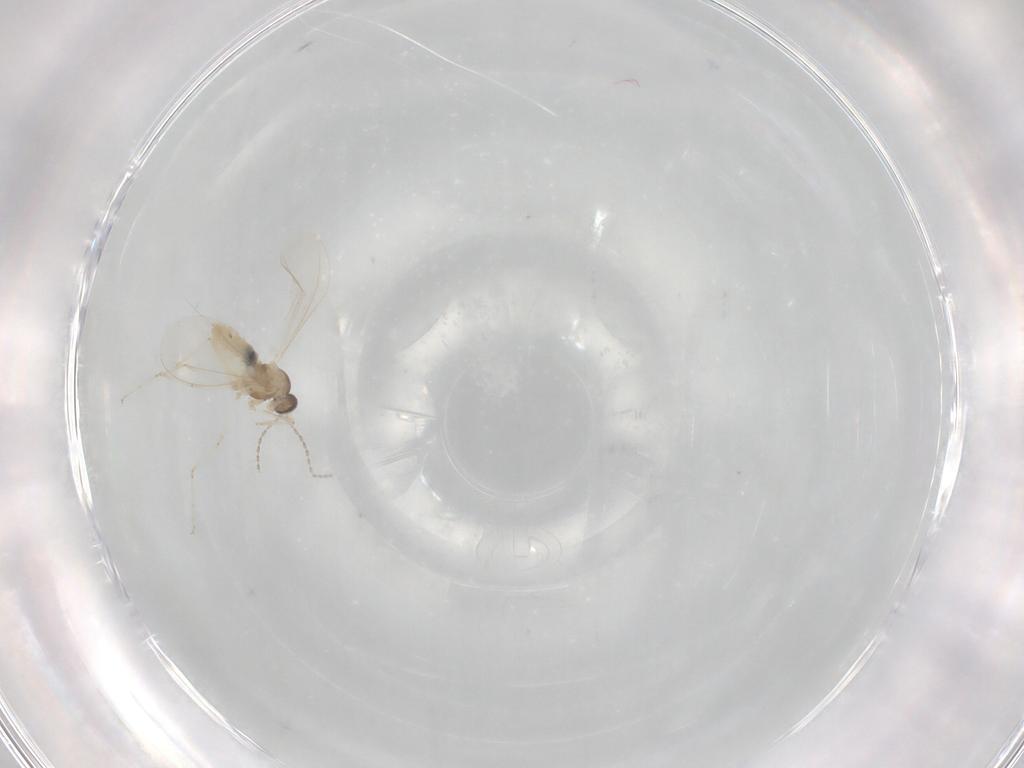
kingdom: Animalia
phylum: Arthropoda
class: Insecta
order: Diptera
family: Cecidomyiidae
